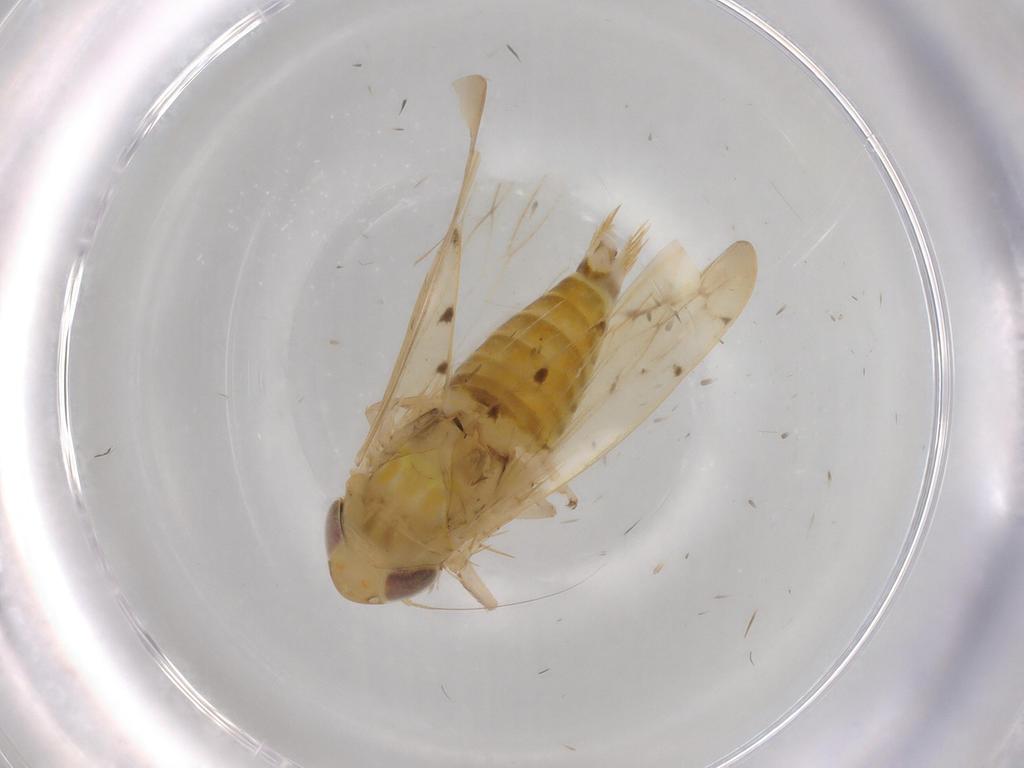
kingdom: Animalia
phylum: Arthropoda
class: Insecta
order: Hemiptera
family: Cicadellidae
